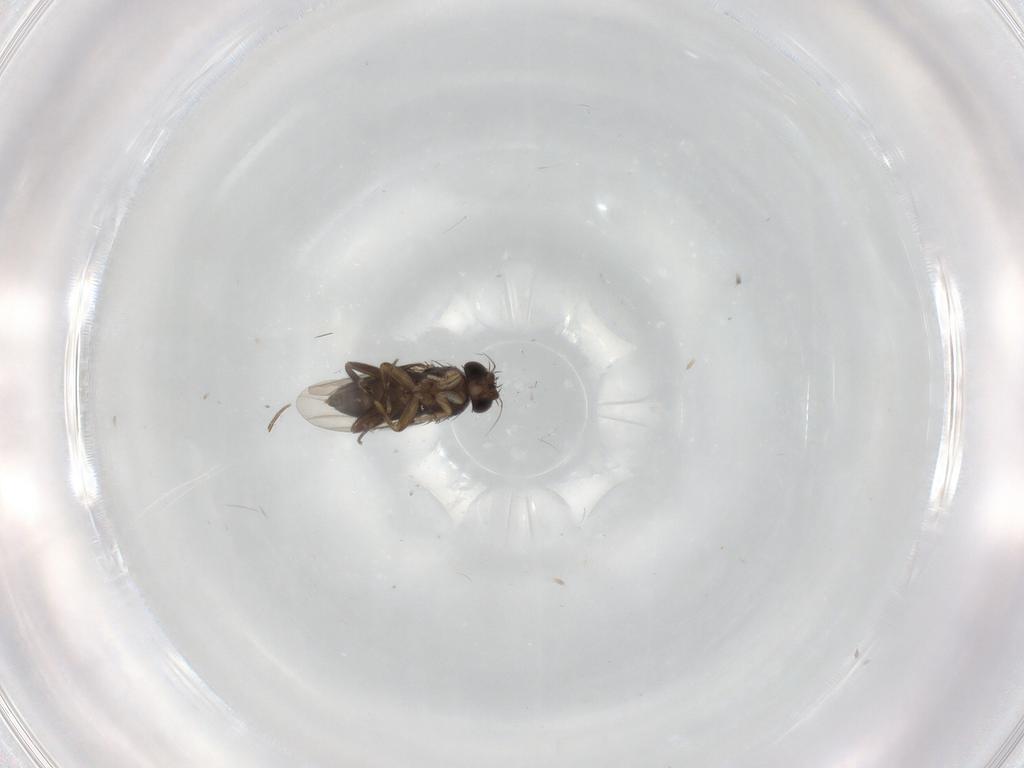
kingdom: Animalia
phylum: Arthropoda
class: Insecta
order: Diptera
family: Phoridae
